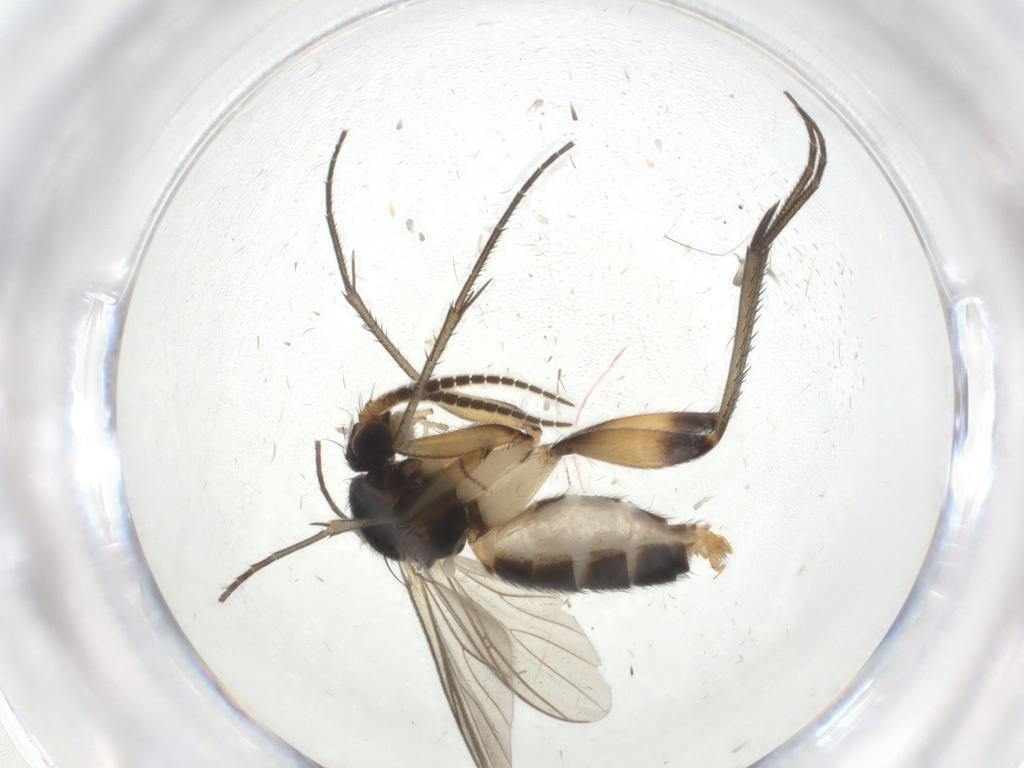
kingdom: Animalia
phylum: Arthropoda
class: Insecta
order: Diptera
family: Mycetophilidae
